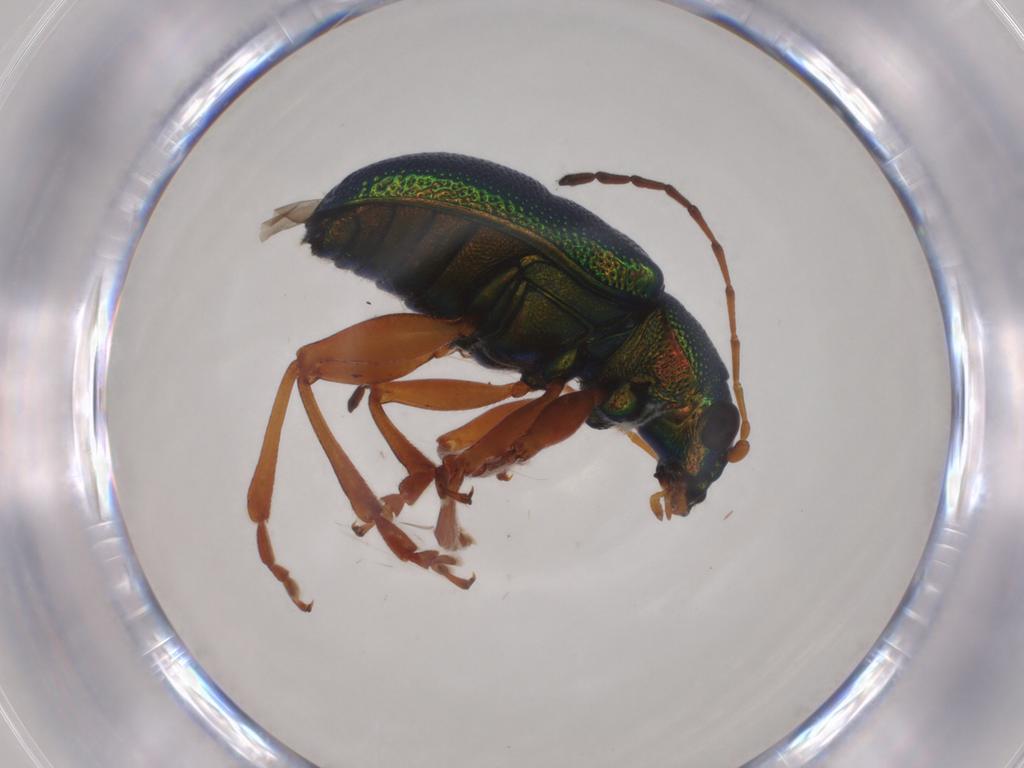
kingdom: Animalia
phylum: Arthropoda
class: Insecta
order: Coleoptera
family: Chrysomelidae
